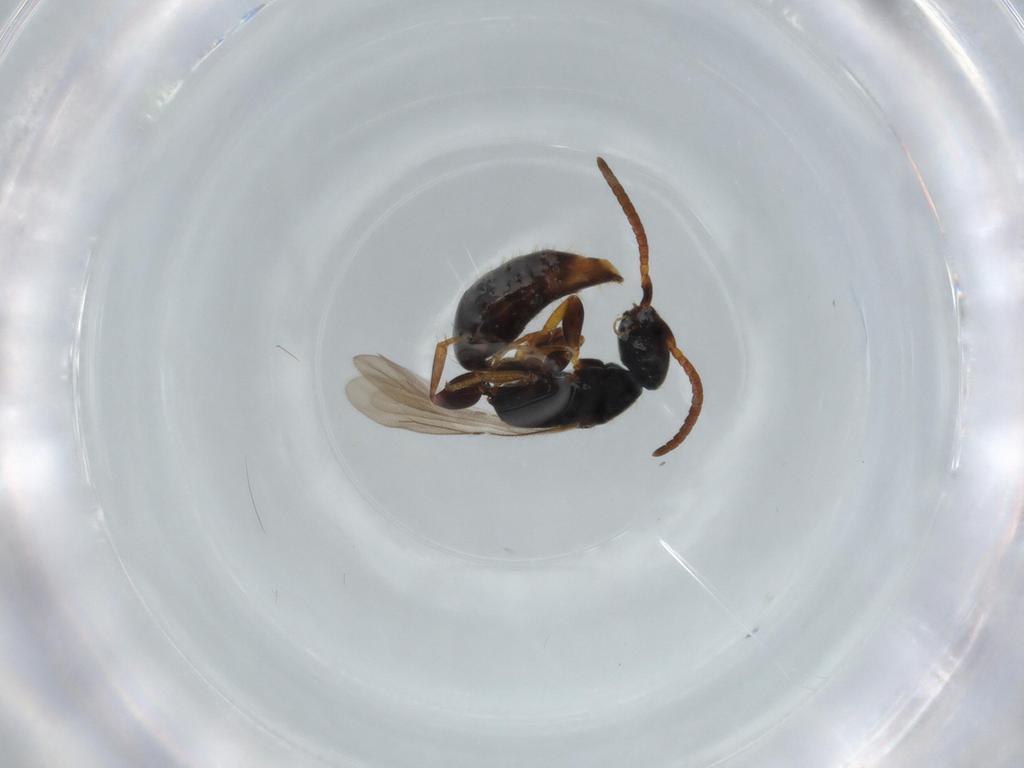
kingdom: Animalia
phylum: Arthropoda
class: Insecta
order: Hymenoptera
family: Bethylidae
